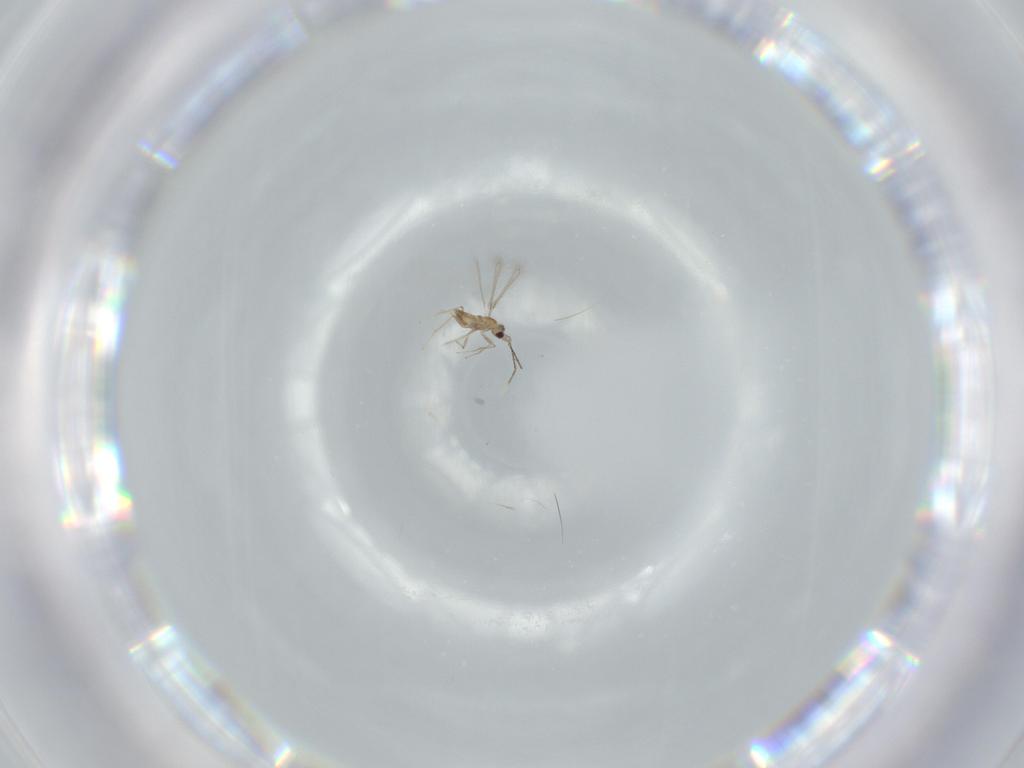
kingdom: Animalia
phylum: Arthropoda
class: Insecta
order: Hymenoptera
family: Mymaridae
